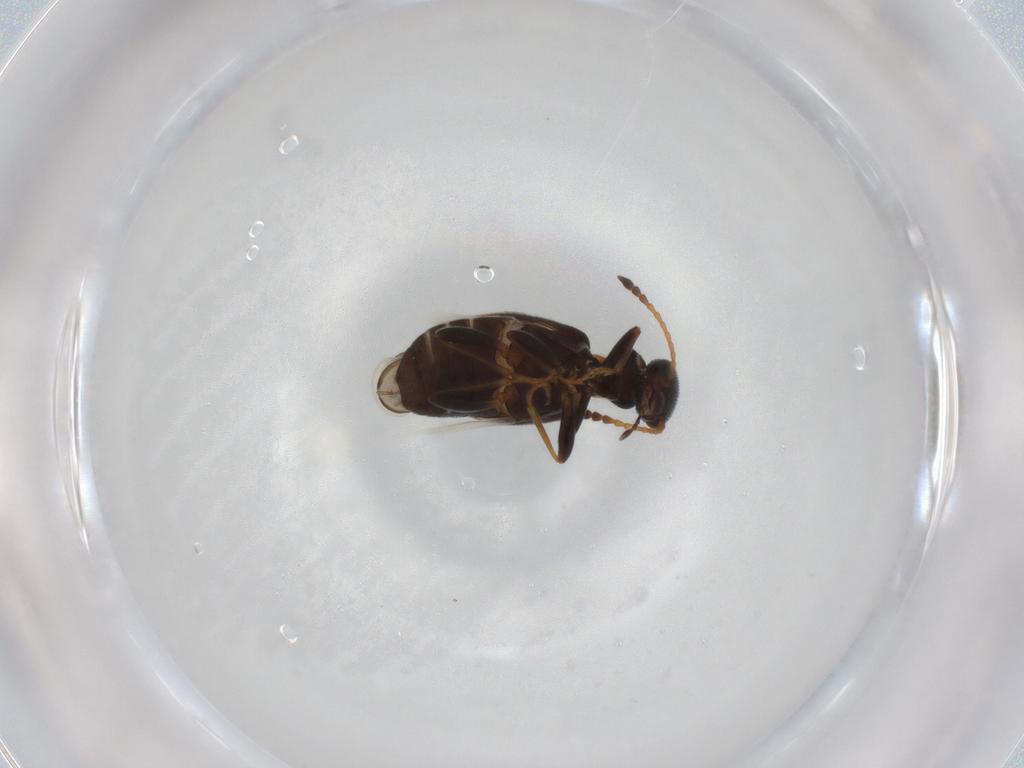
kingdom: Animalia
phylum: Arthropoda
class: Insecta
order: Coleoptera
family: Anthicidae
